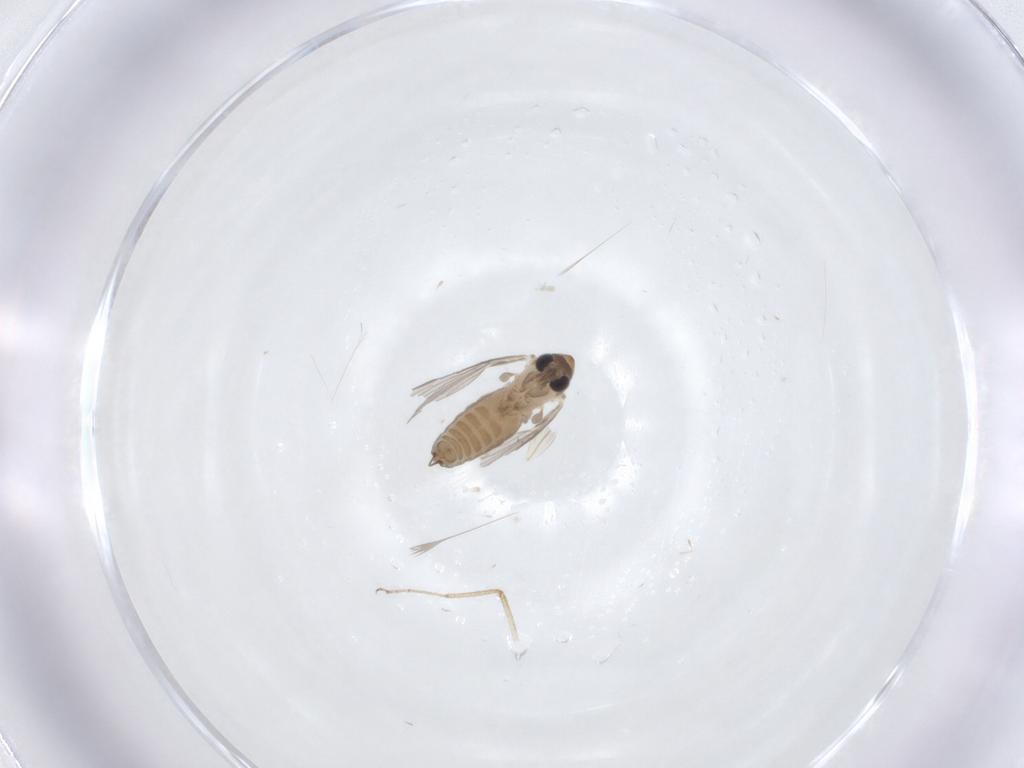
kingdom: Animalia
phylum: Arthropoda
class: Insecta
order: Diptera
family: Ceratopogonidae
